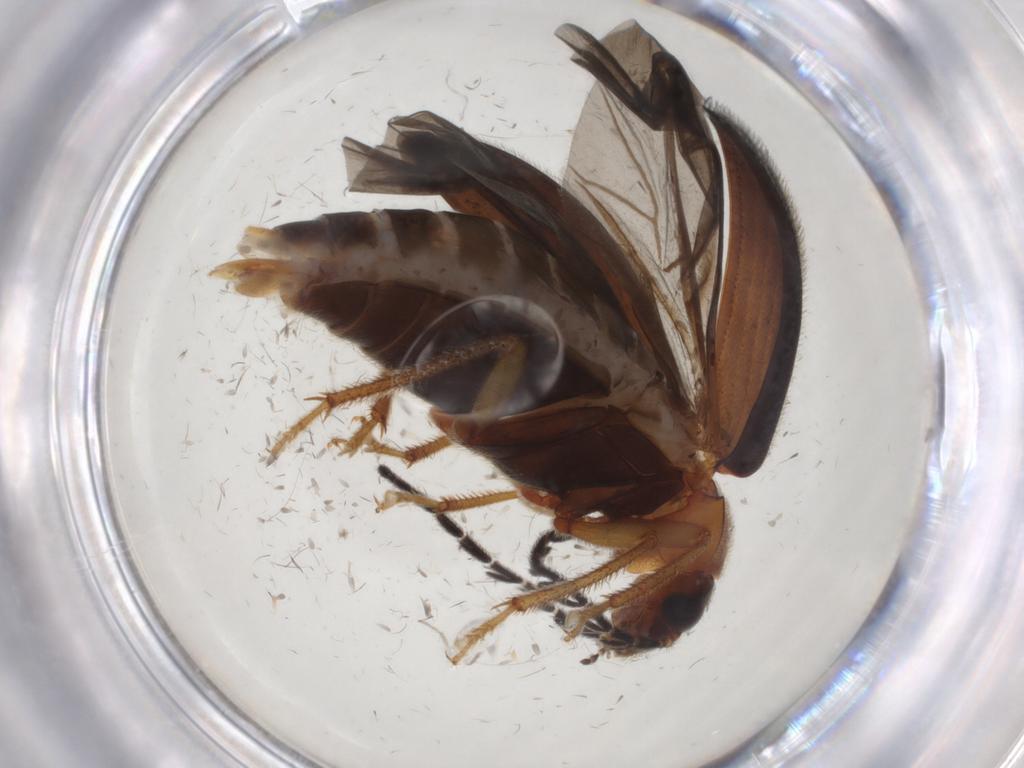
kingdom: Animalia
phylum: Arthropoda
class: Insecta
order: Coleoptera
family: Ptilodactylidae
